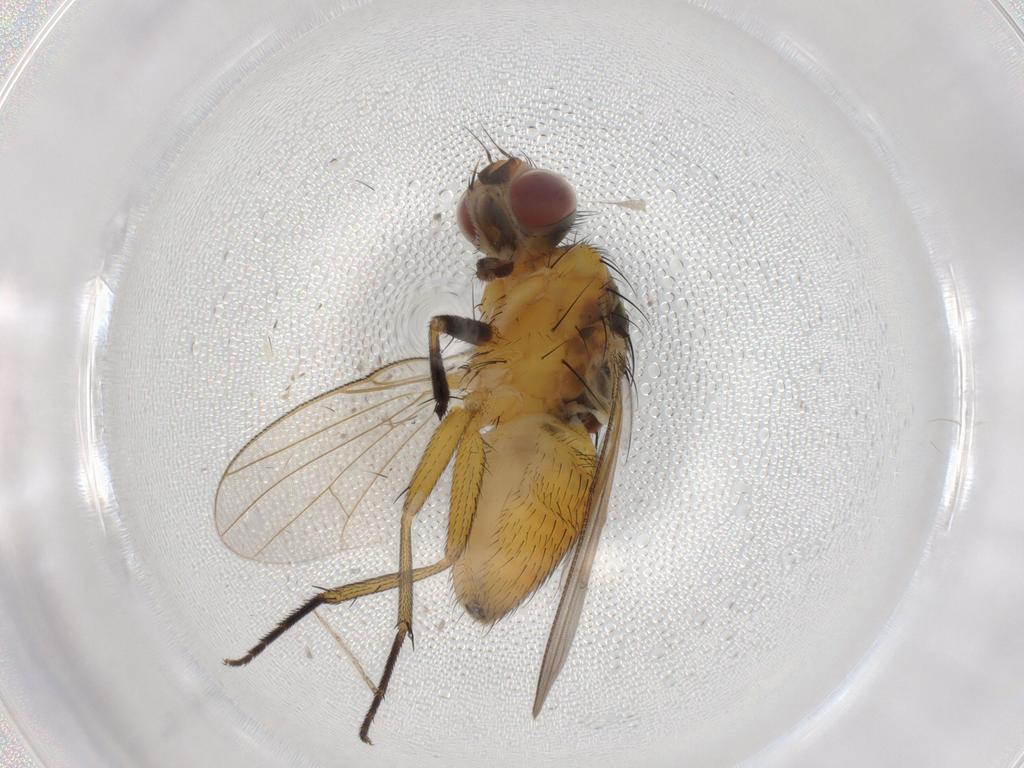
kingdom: Animalia
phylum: Arthropoda
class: Insecta
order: Diptera
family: Muscidae
